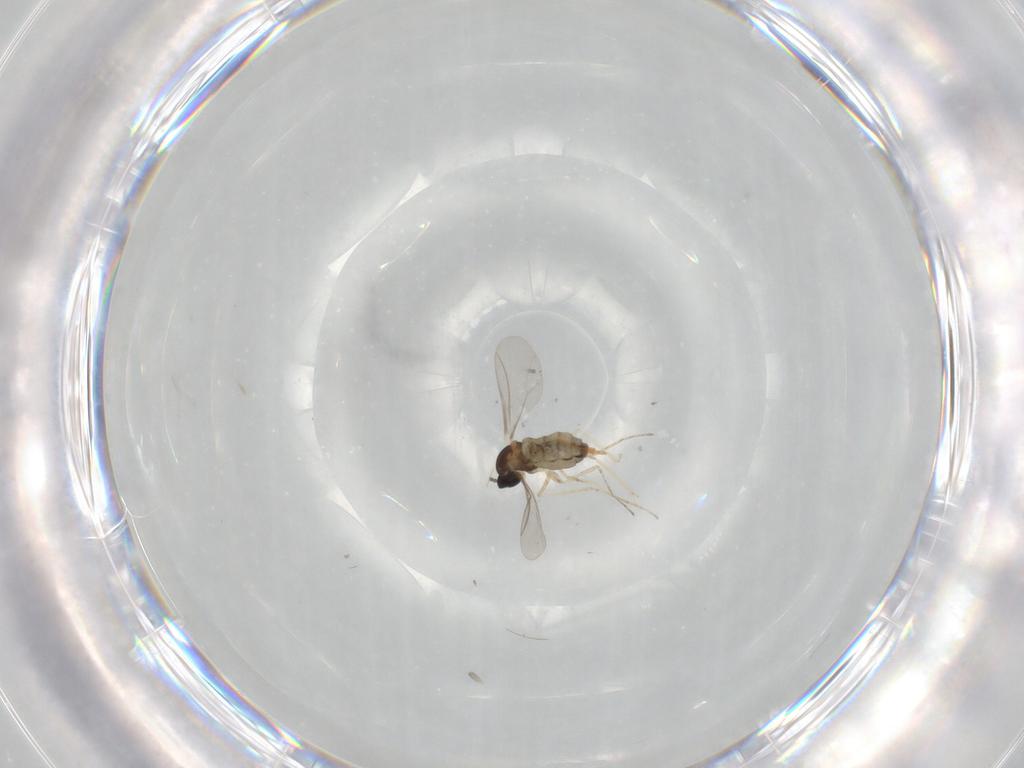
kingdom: Animalia
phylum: Arthropoda
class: Insecta
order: Diptera
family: Cecidomyiidae
